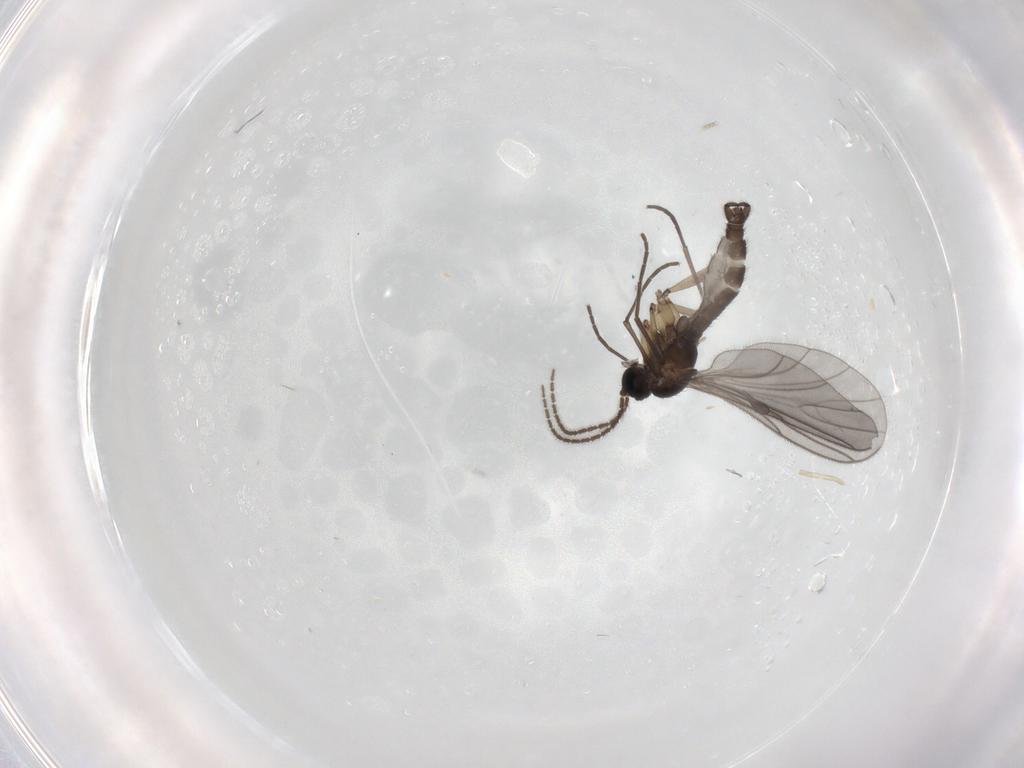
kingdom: Animalia
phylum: Arthropoda
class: Insecta
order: Diptera
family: Sciaridae
